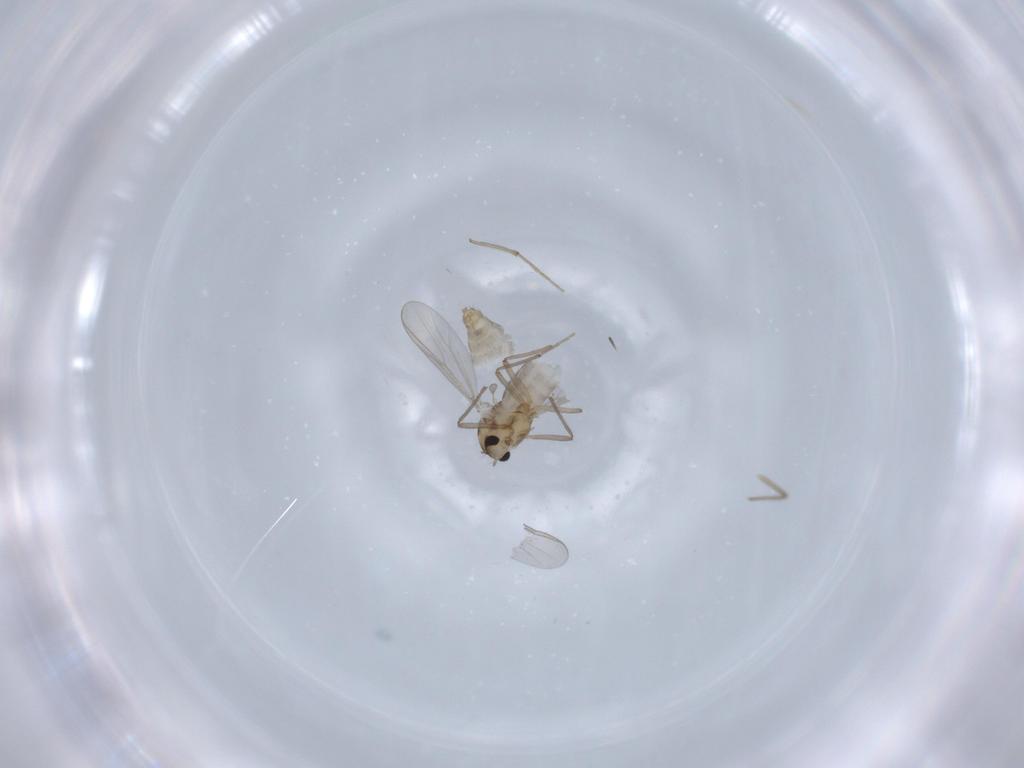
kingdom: Animalia
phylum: Arthropoda
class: Insecta
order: Diptera
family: Chironomidae
